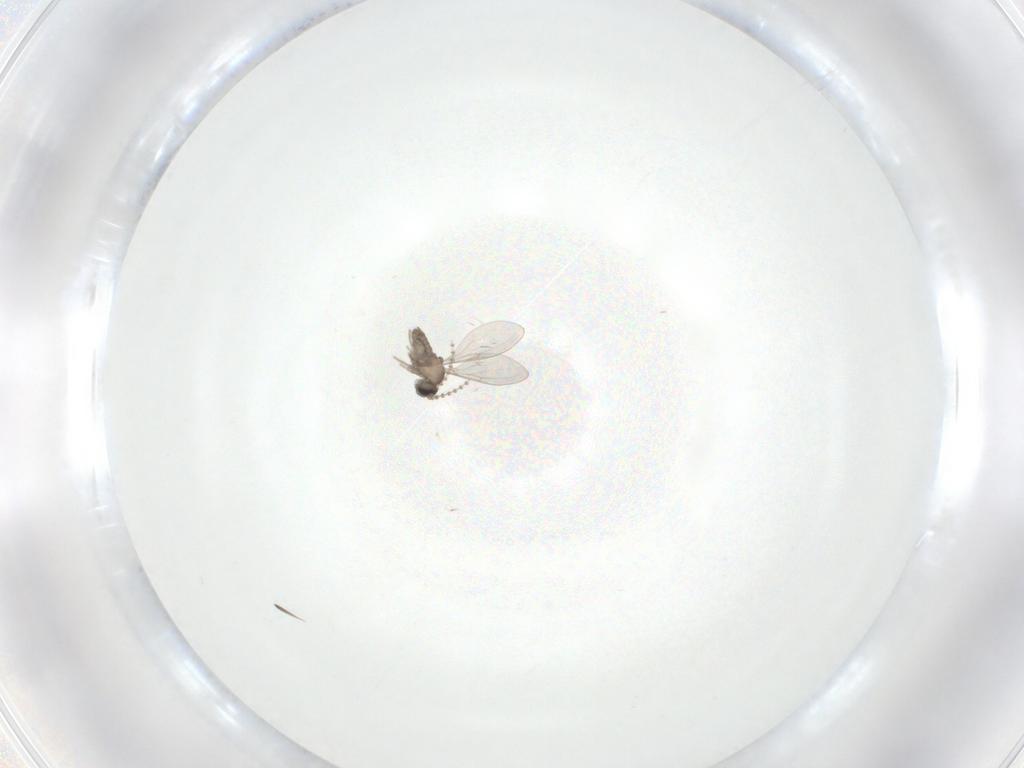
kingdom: Animalia
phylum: Arthropoda
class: Insecta
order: Diptera
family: Cecidomyiidae
